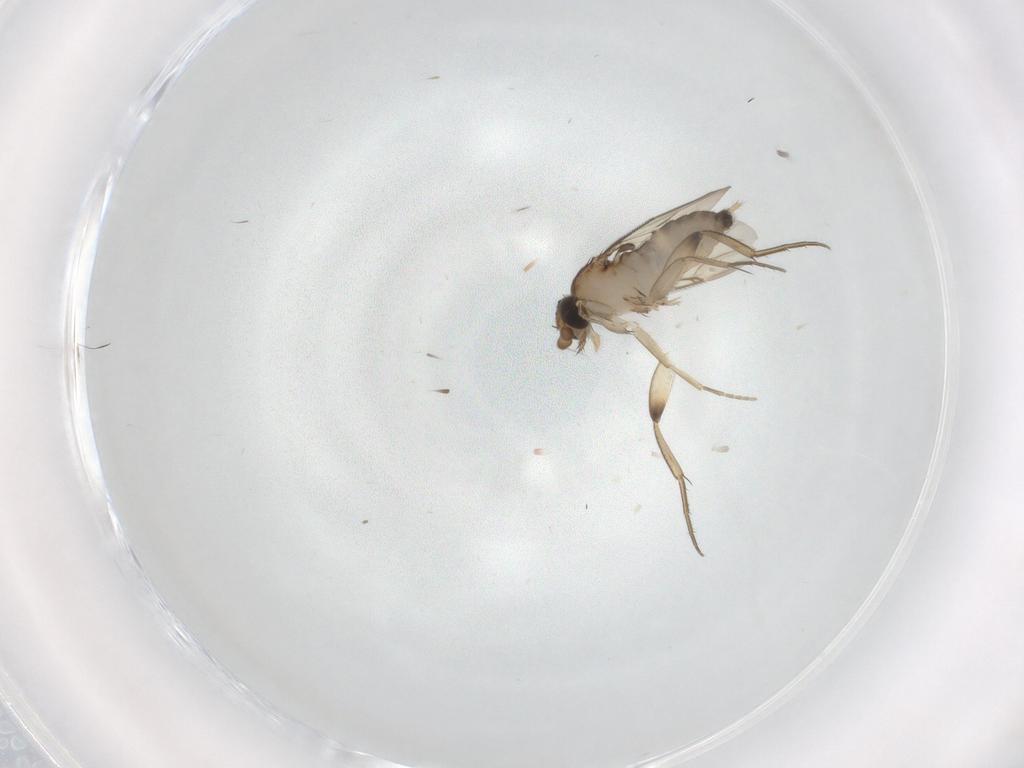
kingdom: Animalia
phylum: Arthropoda
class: Insecta
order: Diptera
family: Phoridae
